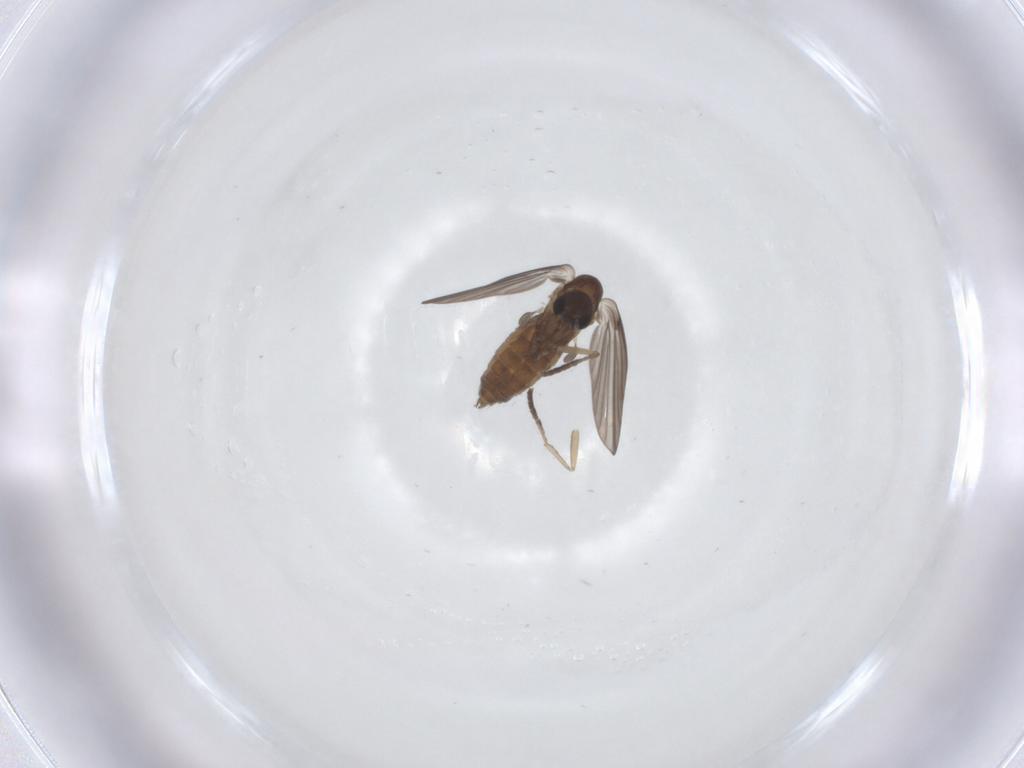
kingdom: Animalia
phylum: Arthropoda
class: Insecta
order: Diptera
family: Psychodidae
